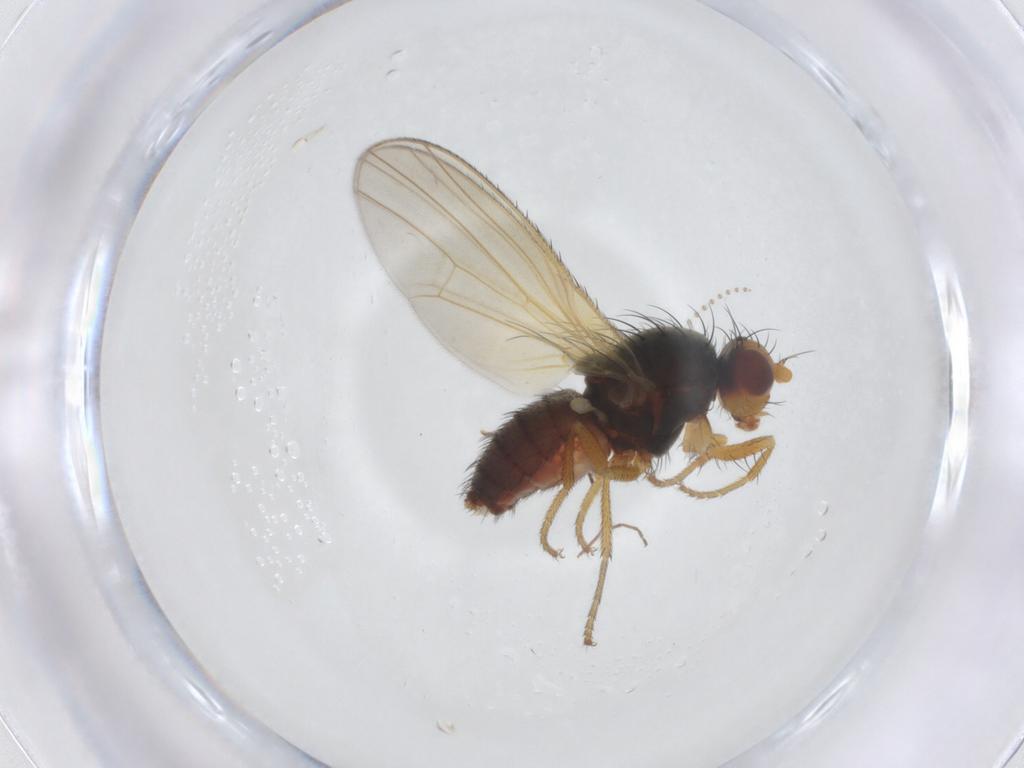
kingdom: Animalia
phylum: Arthropoda
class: Insecta
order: Diptera
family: Heleomyzidae
